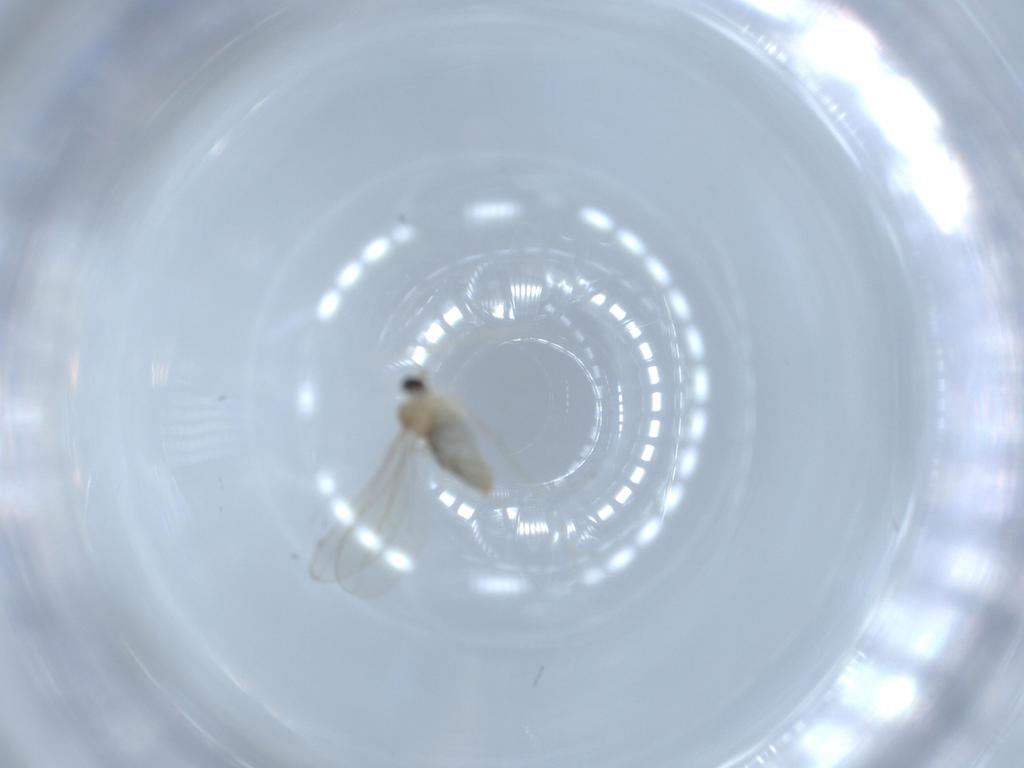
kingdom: Animalia
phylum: Arthropoda
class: Insecta
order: Diptera
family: Cecidomyiidae
